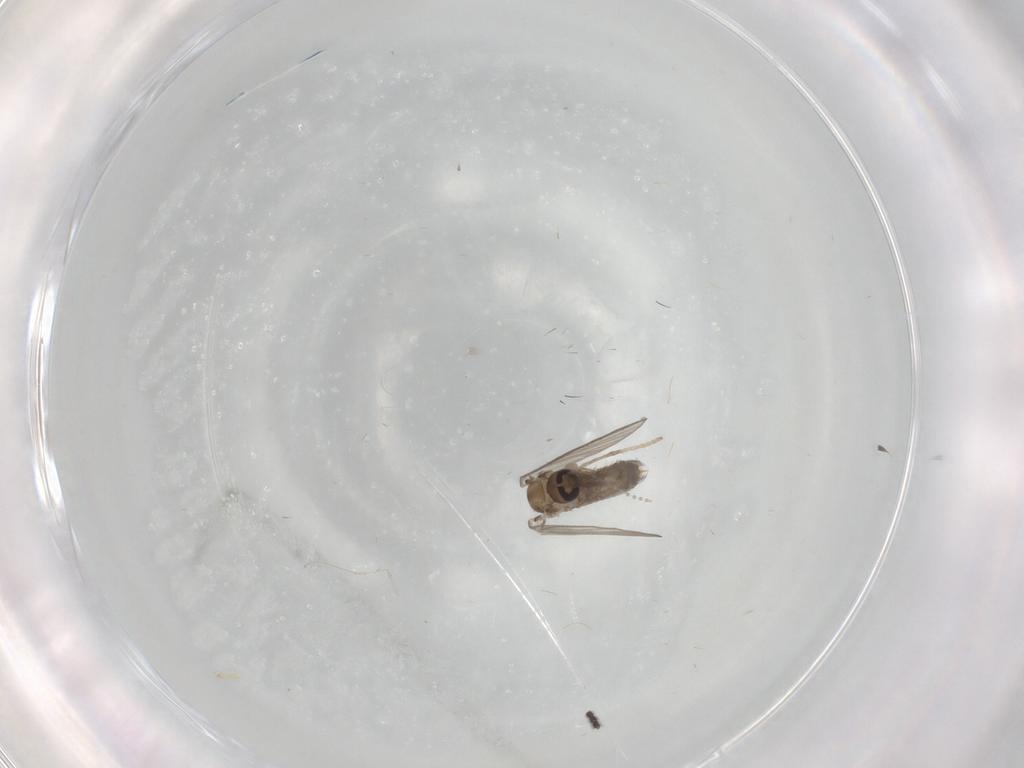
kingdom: Animalia
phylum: Arthropoda
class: Insecta
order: Diptera
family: Psychodidae
